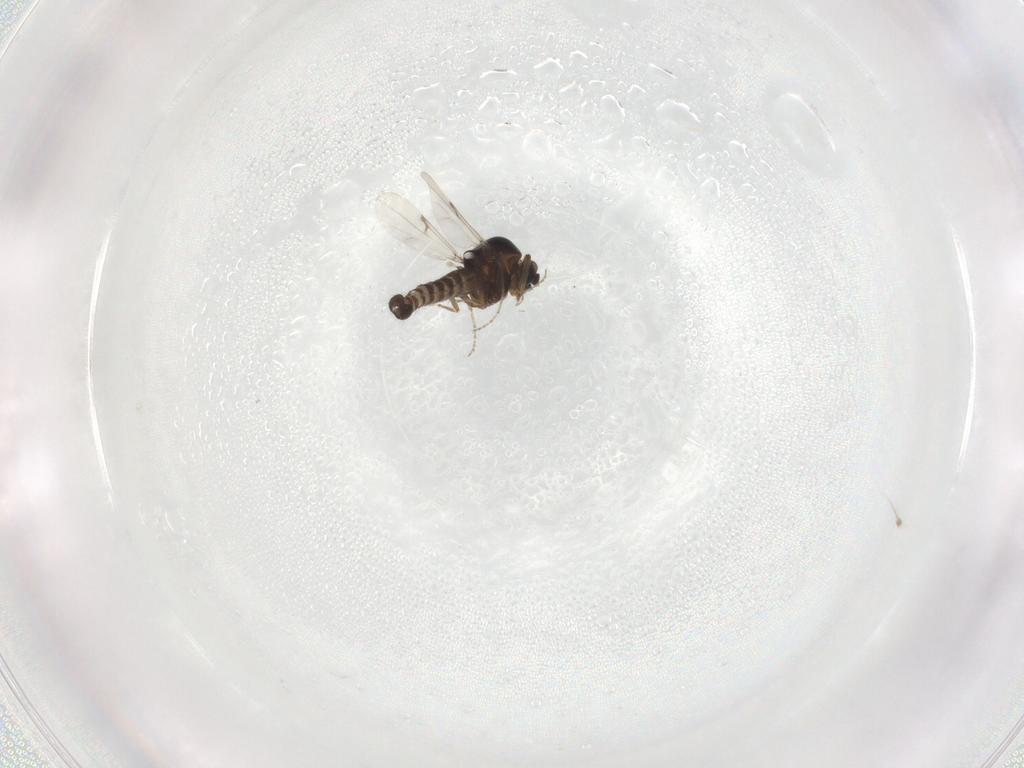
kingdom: Animalia
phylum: Arthropoda
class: Insecta
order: Diptera
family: Ceratopogonidae
